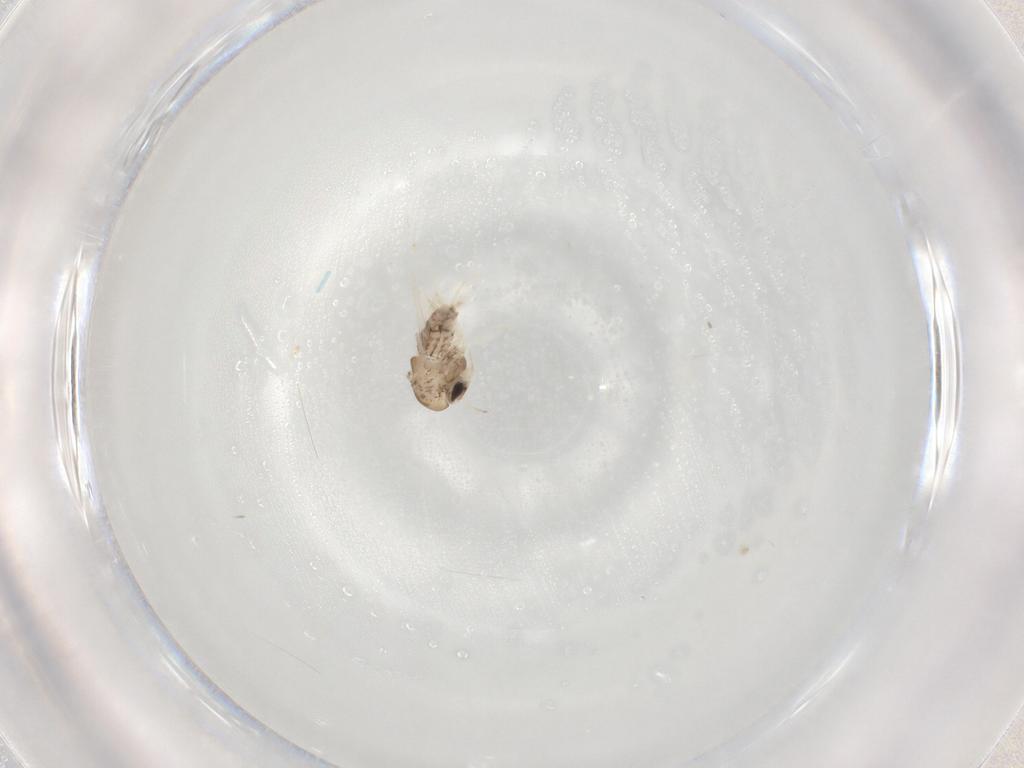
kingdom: Animalia
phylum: Arthropoda
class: Insecta
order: Diptera
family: Chironomidae
